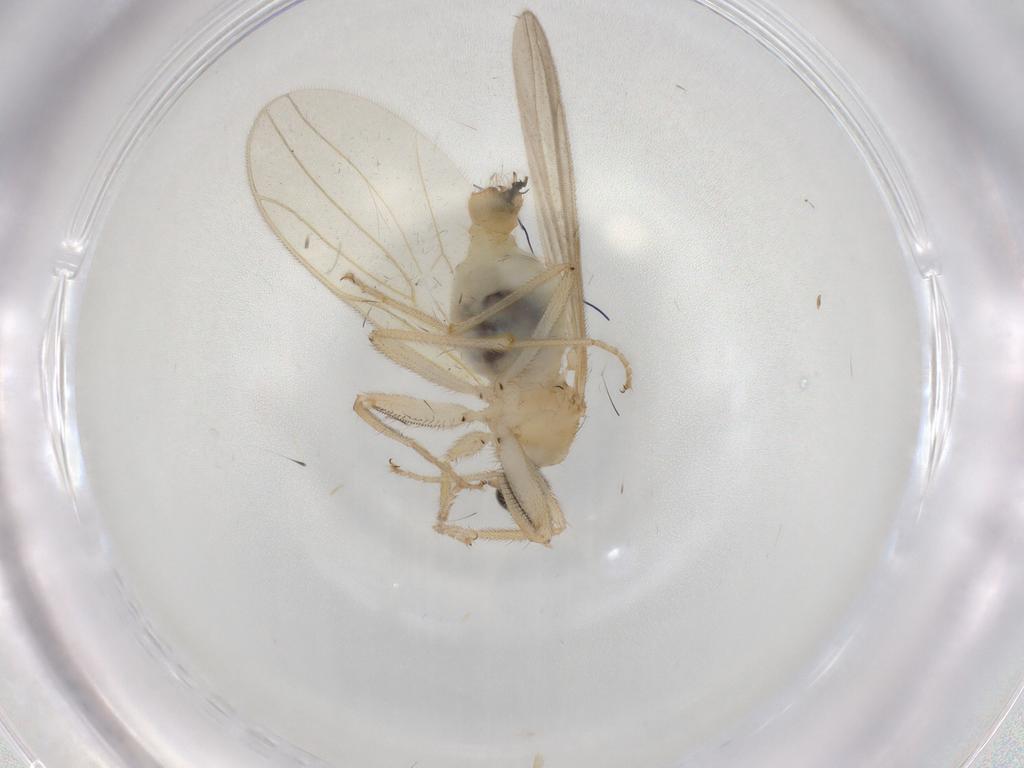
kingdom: Animalia
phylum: Arthropoda
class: Insecta
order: Diptera
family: Hybotidae
